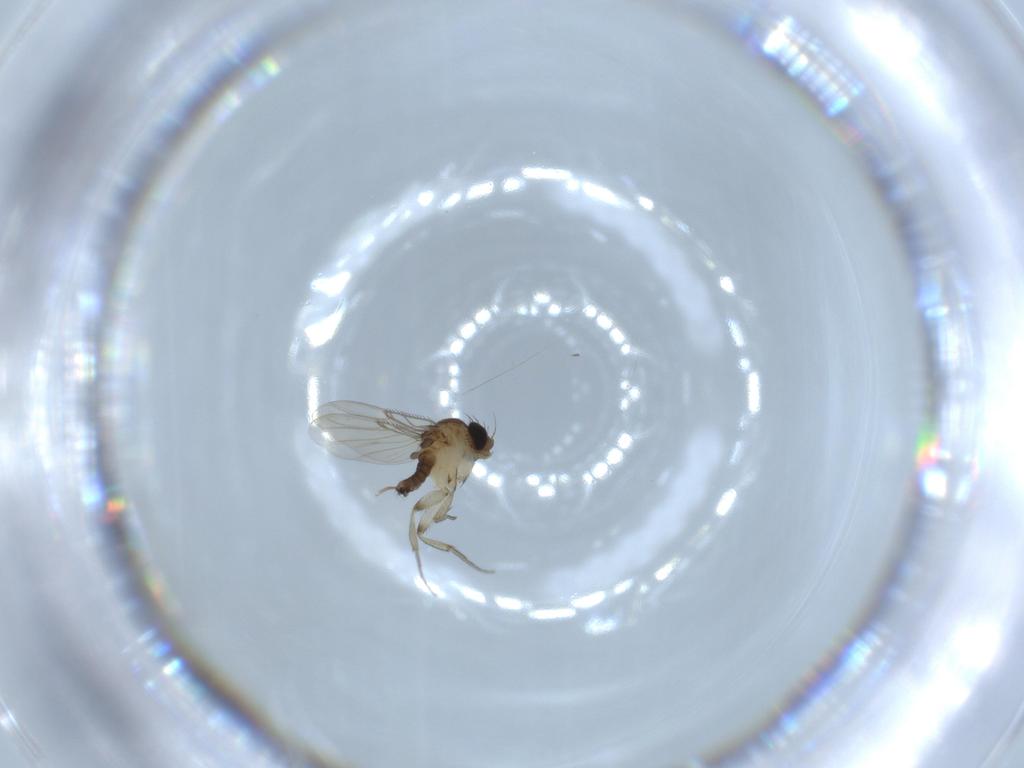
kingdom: Animalia
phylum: Arthropoda
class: Insecta
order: Diptera
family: Phoridae
